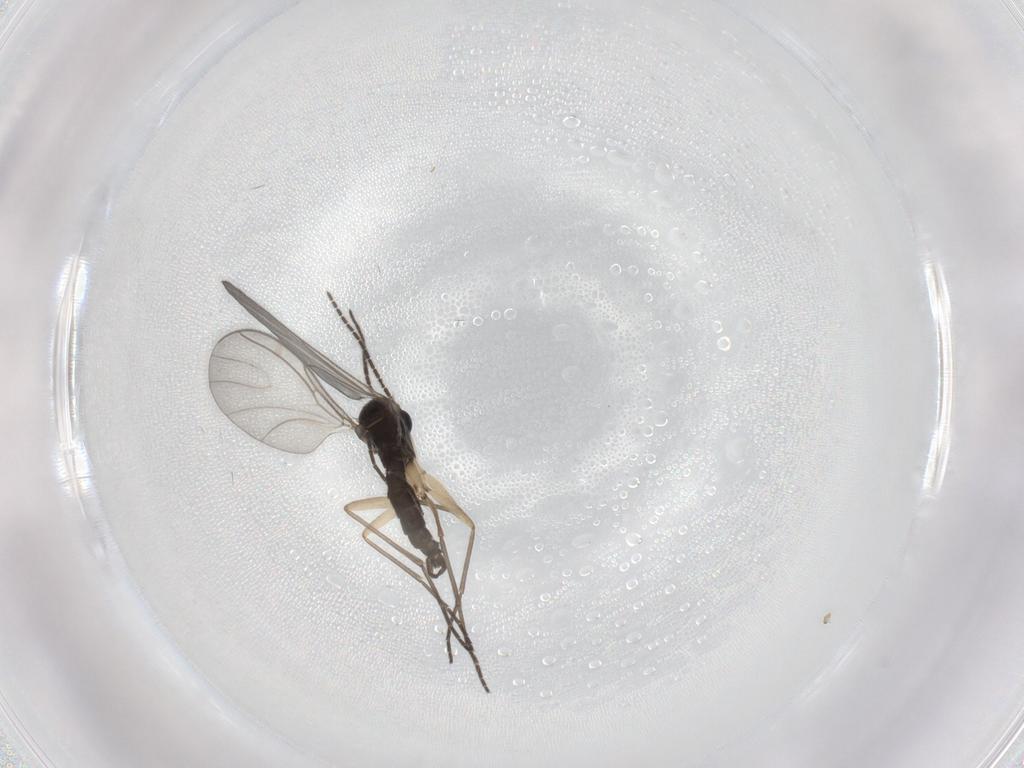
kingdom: Animalia
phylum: Arthropoda
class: Insecta
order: Diptera
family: Sciaridae
